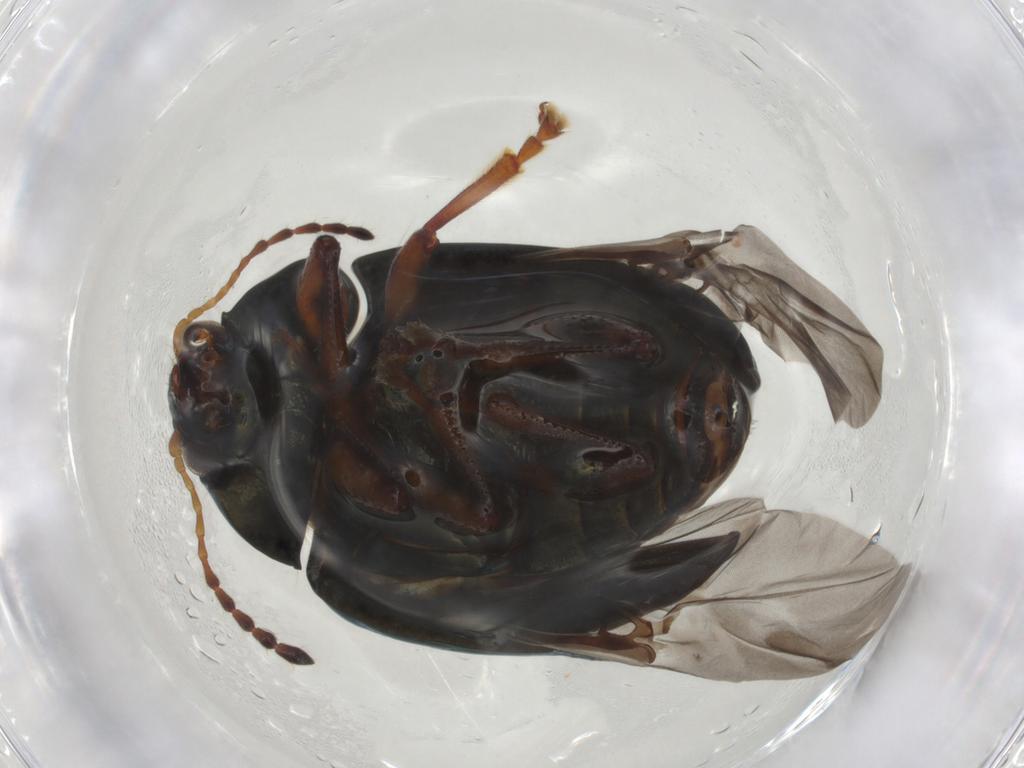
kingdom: Animalia
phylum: Arthropoda
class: Insecta
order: Coleoptera
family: Chrysomelidae
